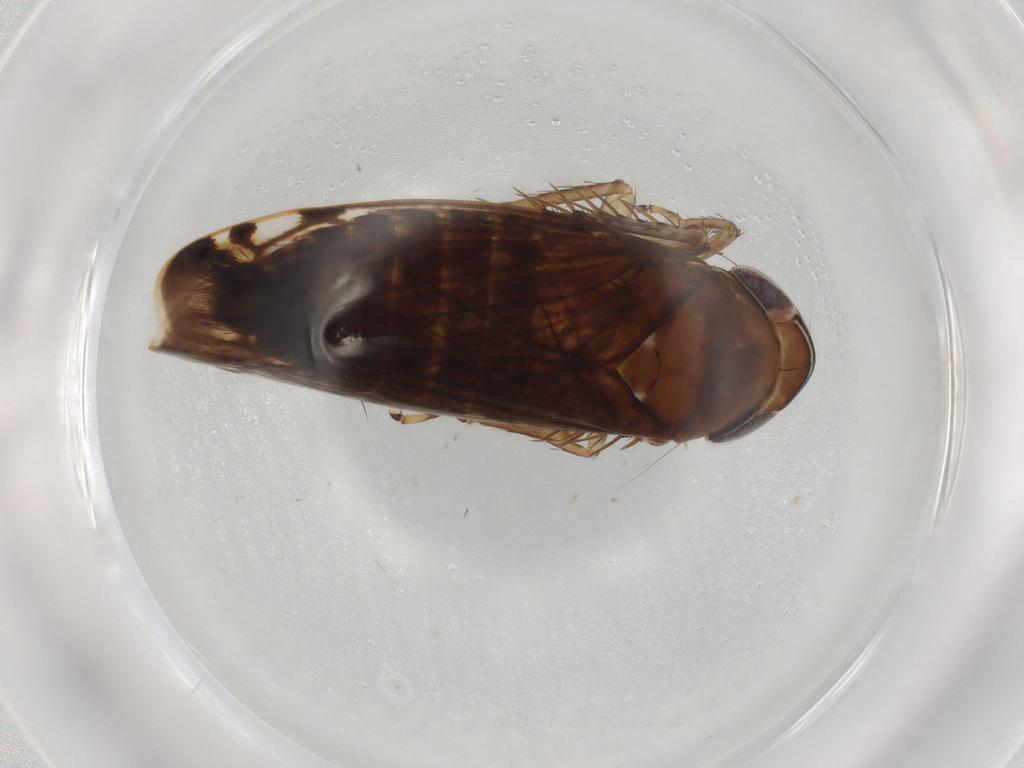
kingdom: Animalia
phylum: Arthropoda
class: Insecta
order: Hemiptera
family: Cicadellidae
